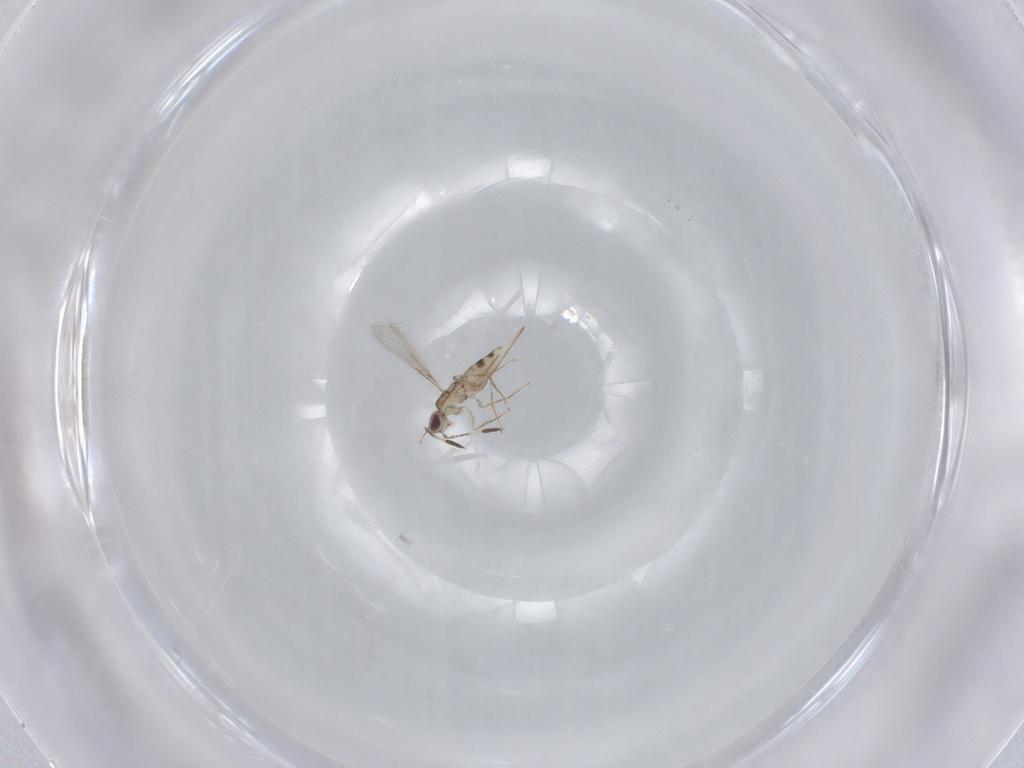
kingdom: Animalia
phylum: Arthropoda
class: Insecta
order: Hymenoptera
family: Mymaridae
